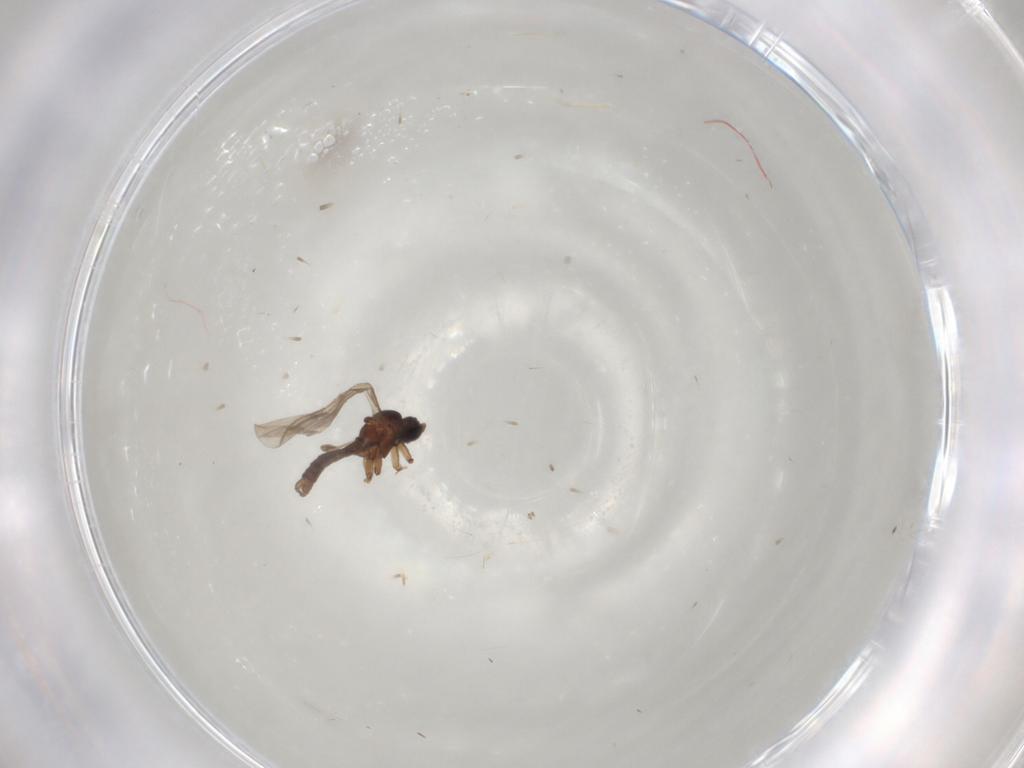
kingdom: Animalia
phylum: Arthropoda
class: Insecta
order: Diptera
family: Sciaridae
